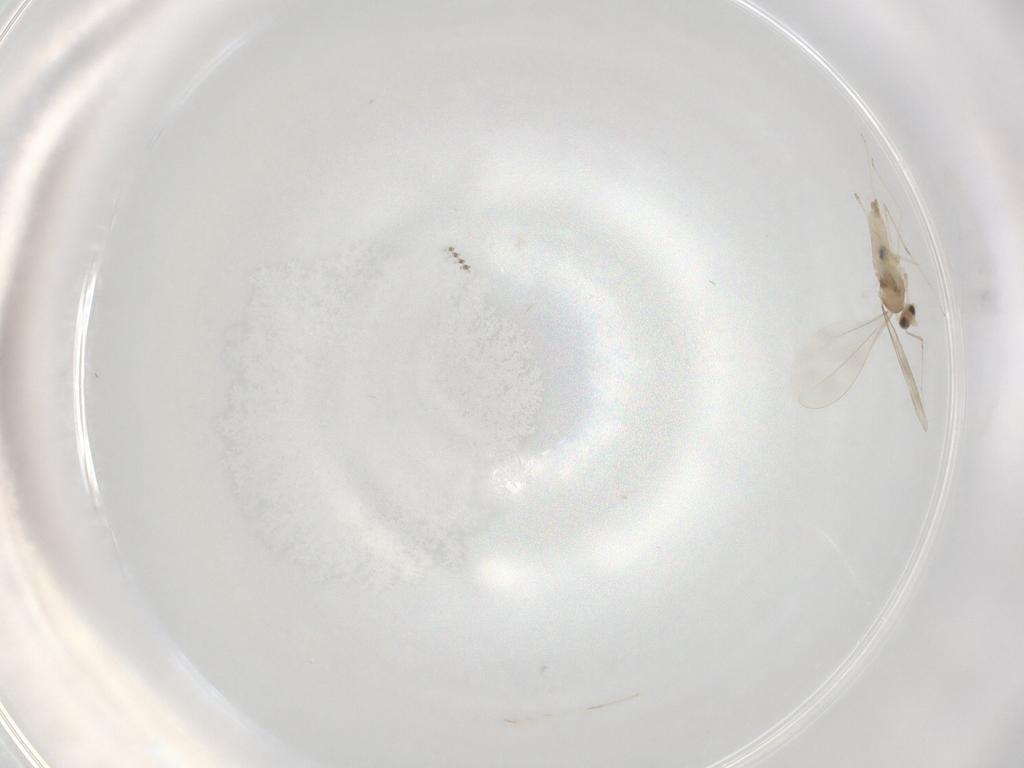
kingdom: Animalia
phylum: Arthropoda
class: Insecta
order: Diptera
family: Cecidomyiidae
